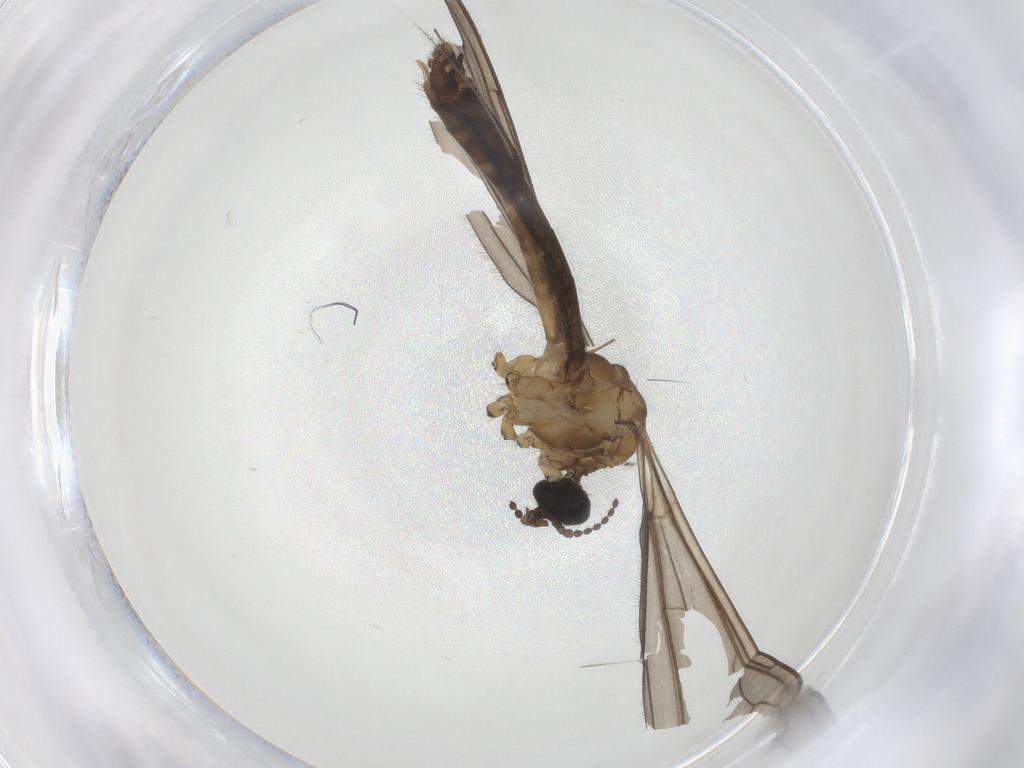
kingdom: Animalia
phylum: Arthropoda
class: Insecta
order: Diptera
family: Limoniidae
